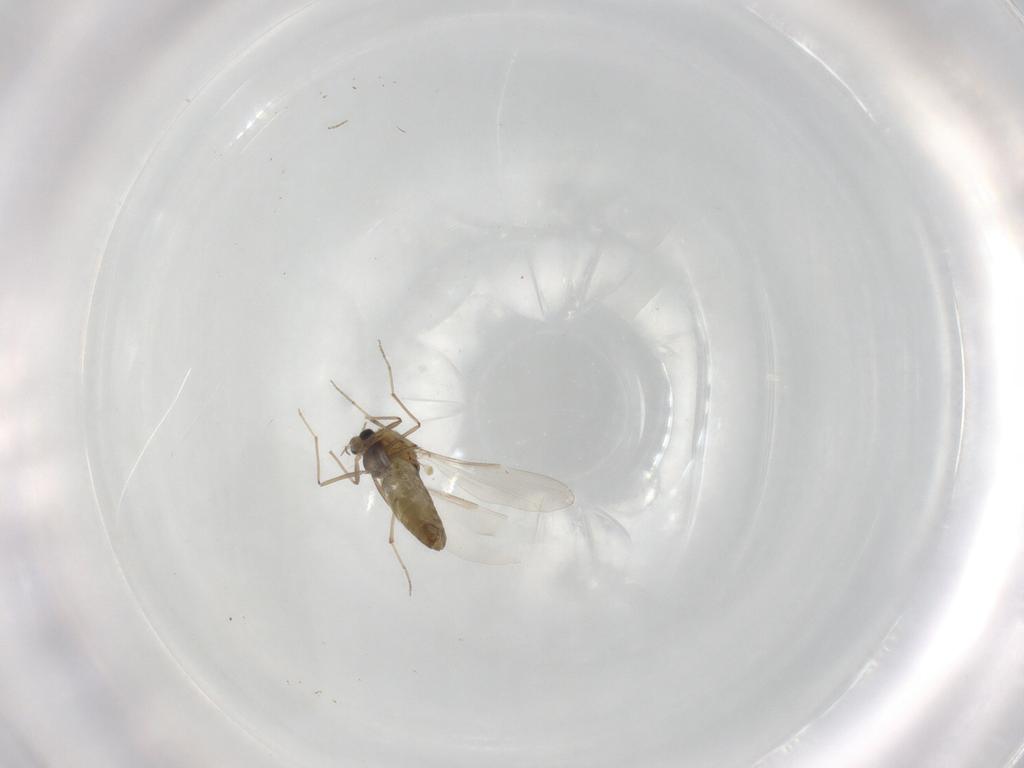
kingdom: Animalia
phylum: Arthropoda
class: Insecta
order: Diptera
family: Chironomidae
